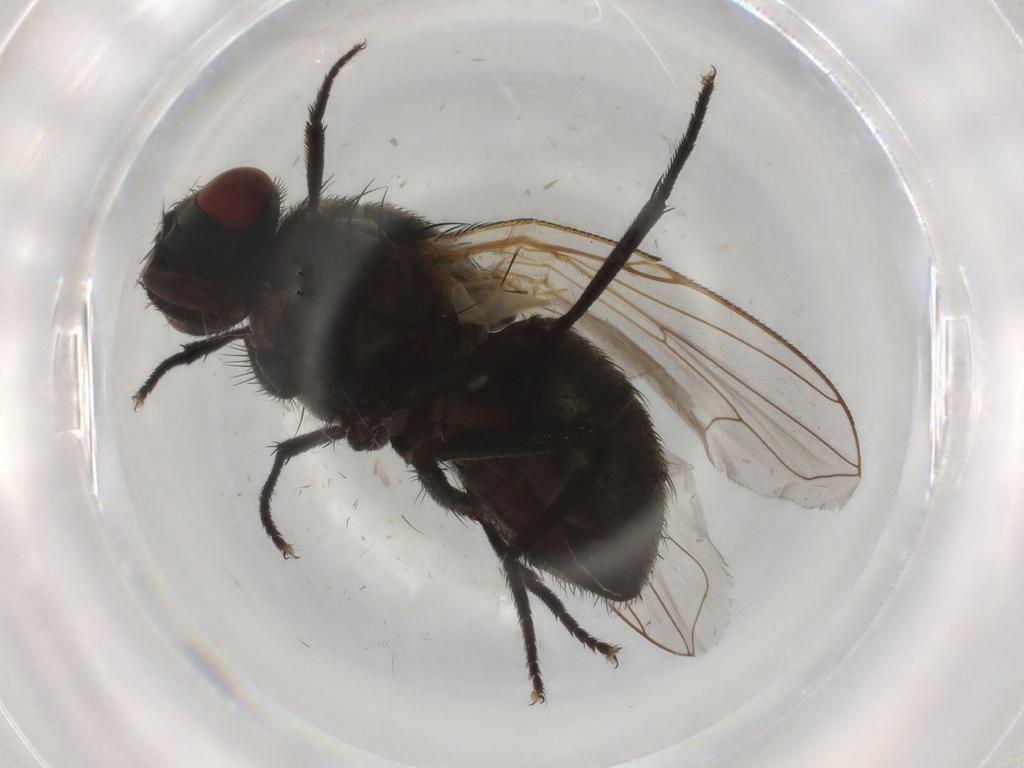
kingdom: Animalia
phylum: Arthropoda
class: Insecta
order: Diptera
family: Muscidae
